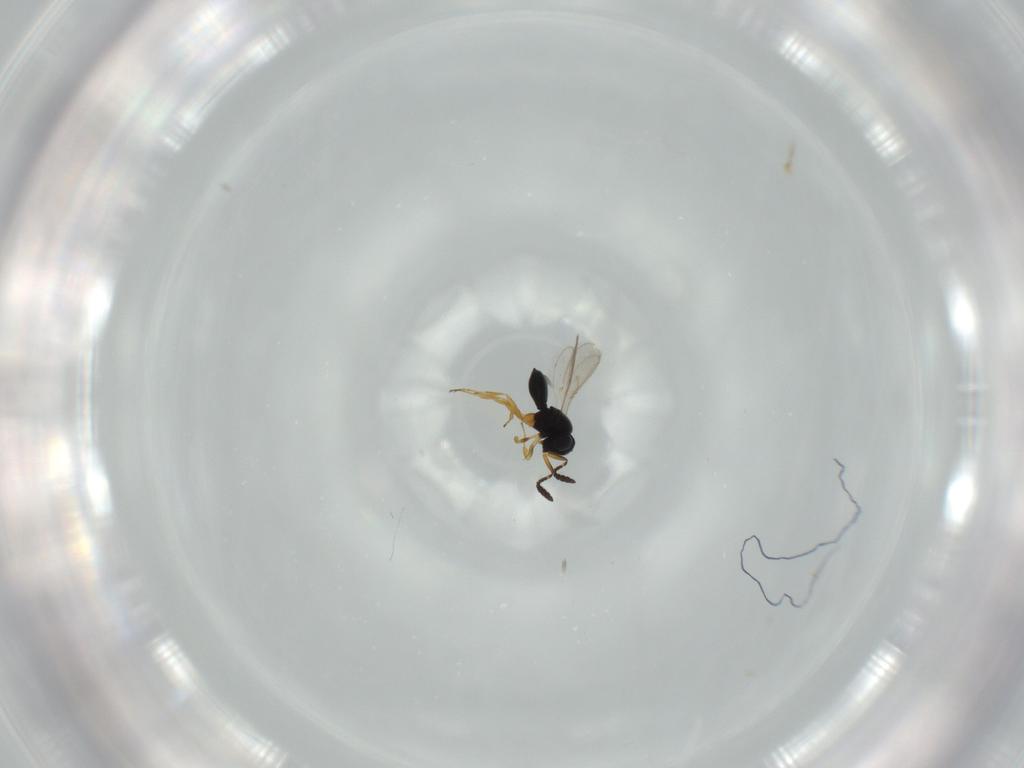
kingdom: Animalia
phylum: Arthropoda
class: Insecta
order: Hymenoptera
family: Scelionidae
